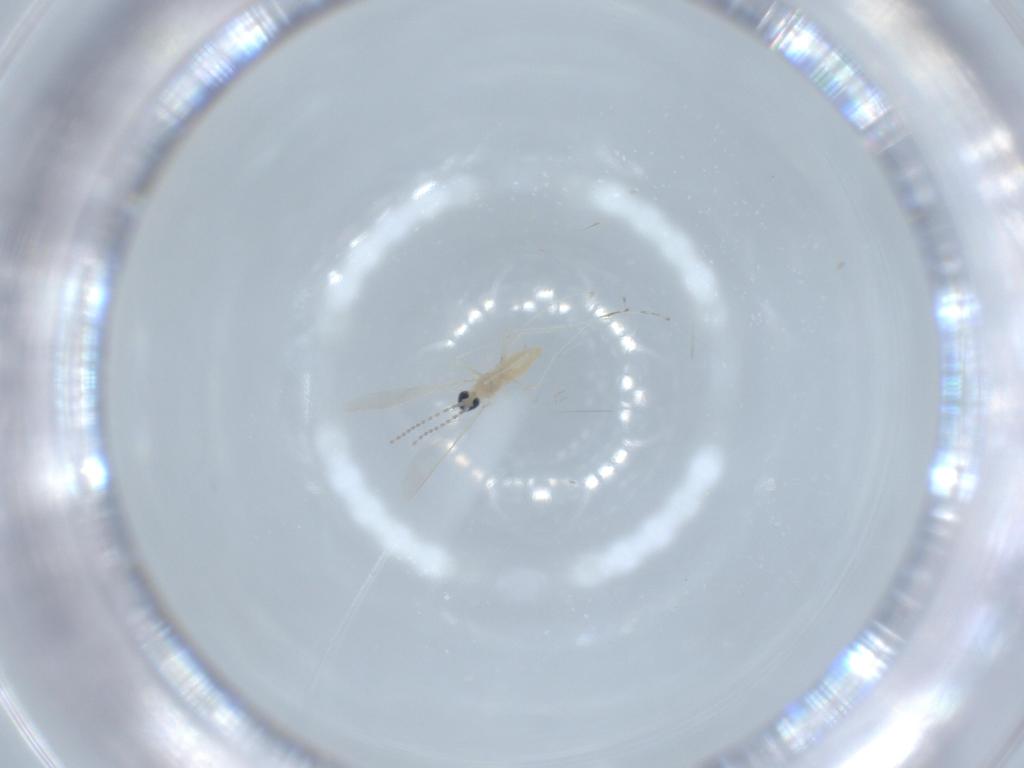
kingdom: Animalia
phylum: Arthropoda
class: Insecta
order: Diptera
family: Cecidomyiidae
